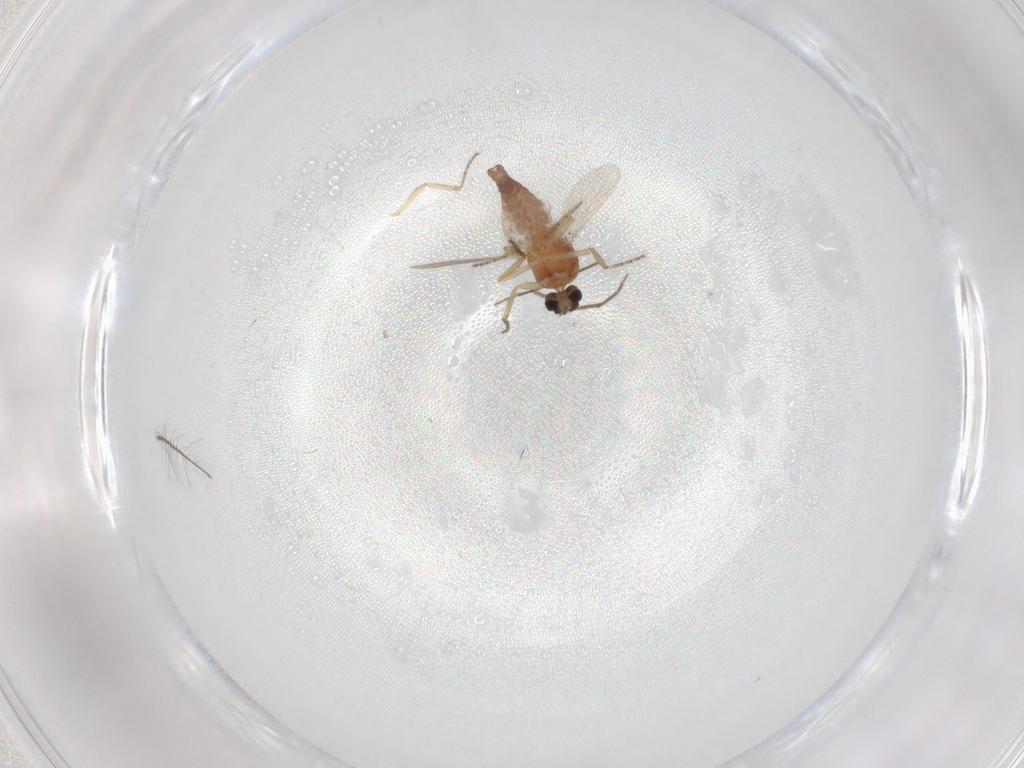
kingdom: Animalia
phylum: Arthropoda
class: Insecta
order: Diptera
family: Ceratopogonidae
